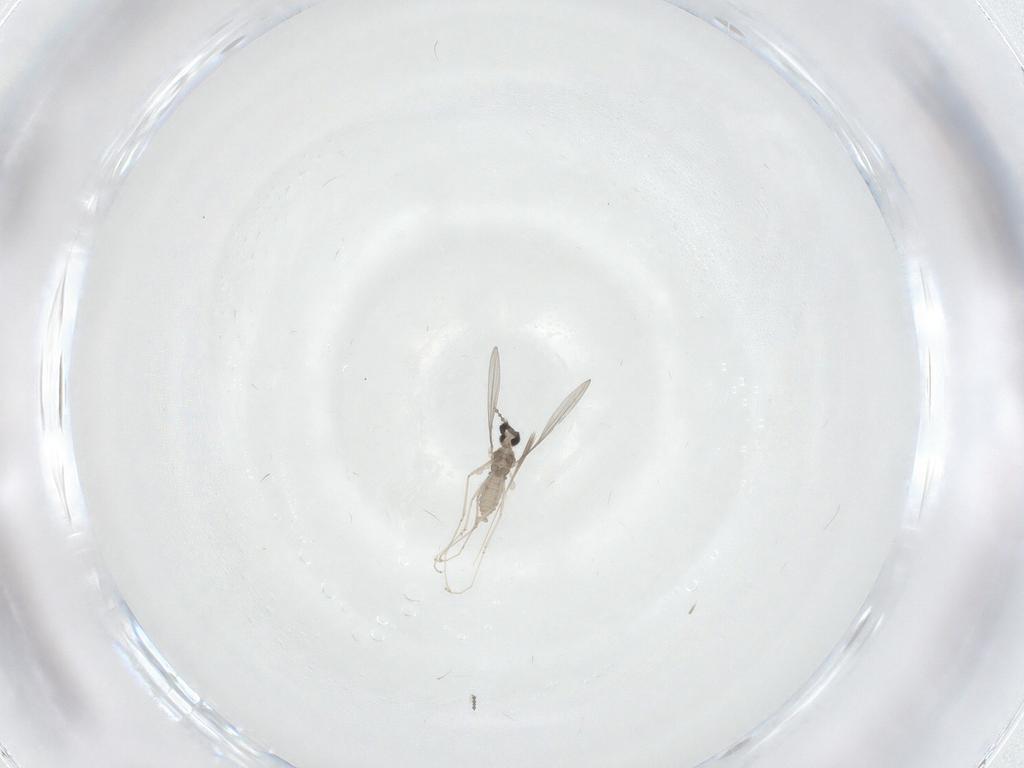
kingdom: Animalia
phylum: Arthropoda
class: Insecta
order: Diptera
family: Cecidomyiidae
